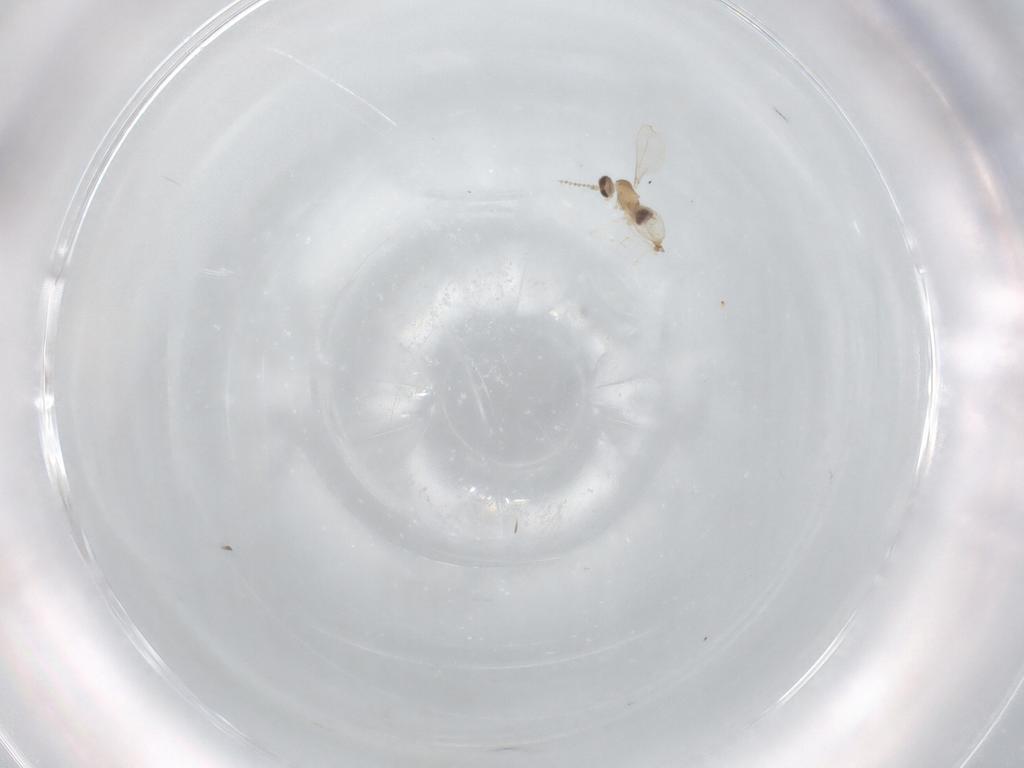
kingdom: Animalia
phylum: Arthropoda
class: Insecta
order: Diptera
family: Cecidomyiidae
